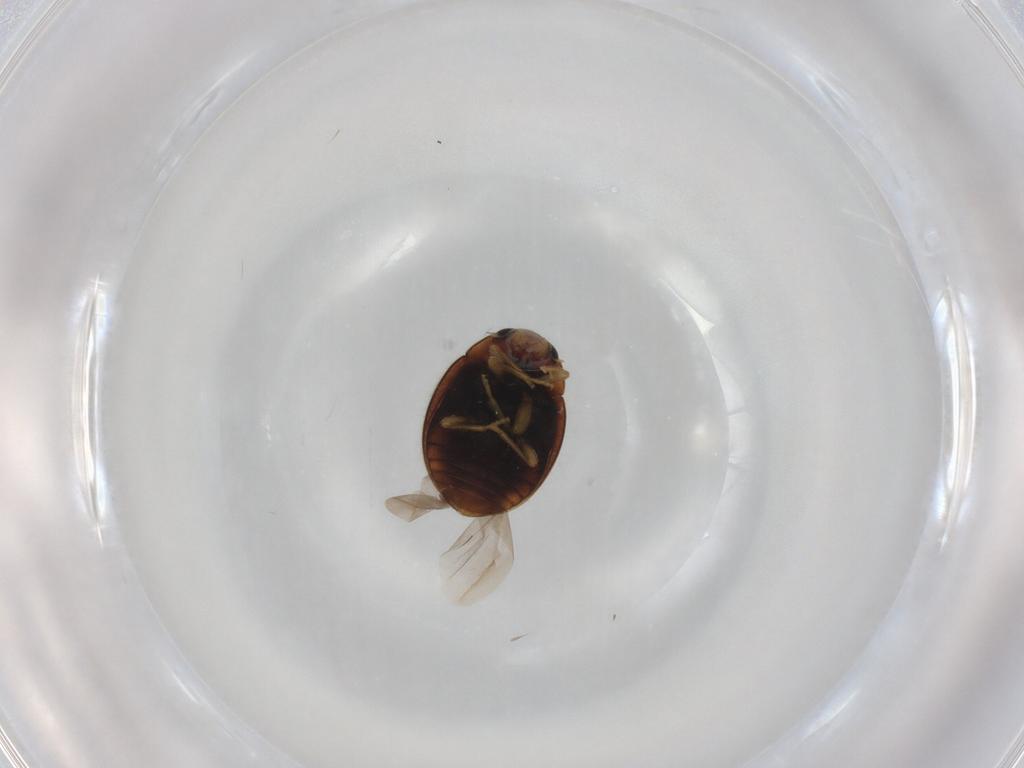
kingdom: Animalia
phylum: Arthropoda
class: Insecta
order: Coleoptera
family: Coccinellidae
